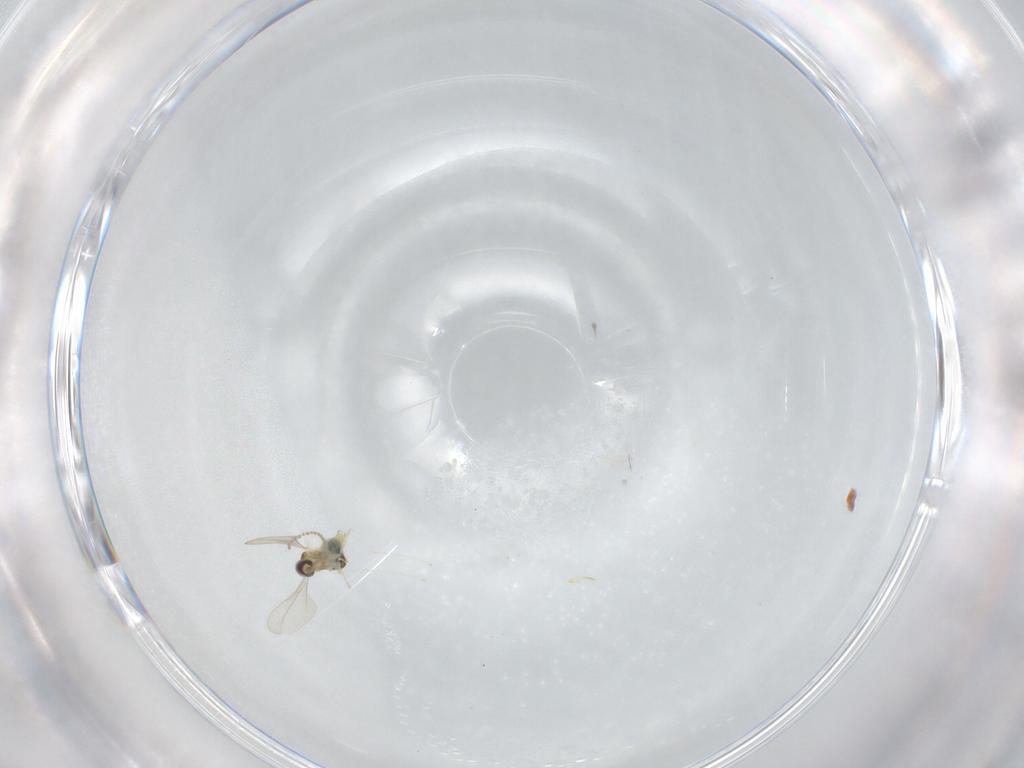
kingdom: Animalia
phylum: Arthropoda
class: Insecta
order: Diptera
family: Cecidomyiidae
